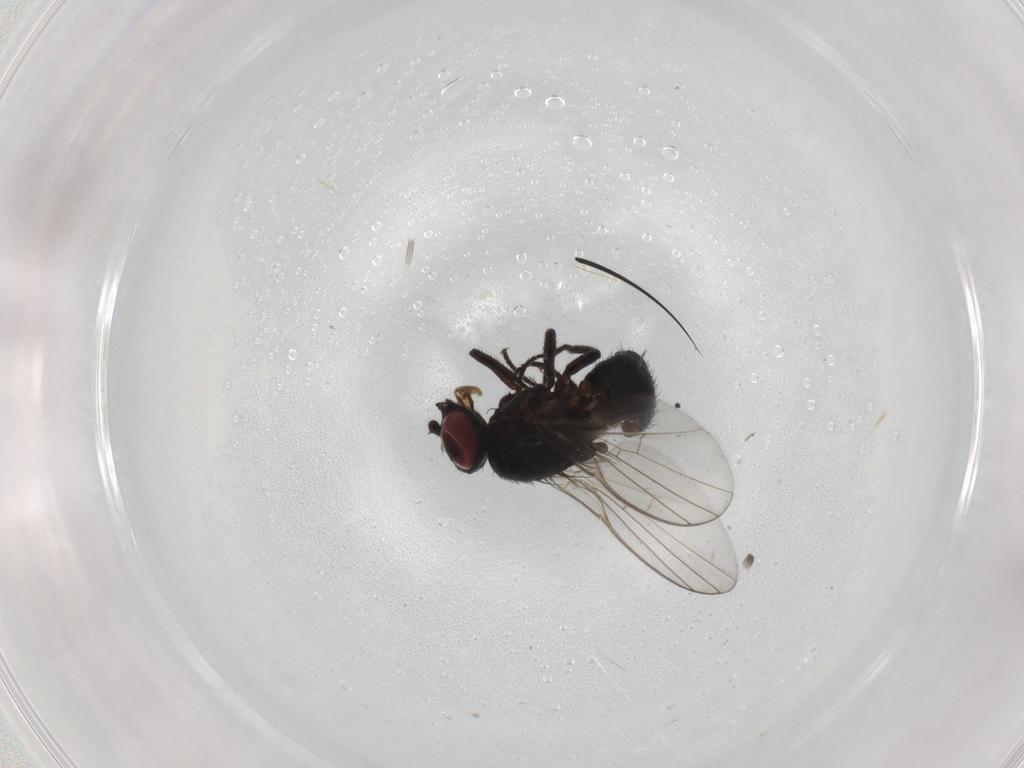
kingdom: Animalia
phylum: Arthropoda
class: Insecta
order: Diptera
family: Agromyzidae
